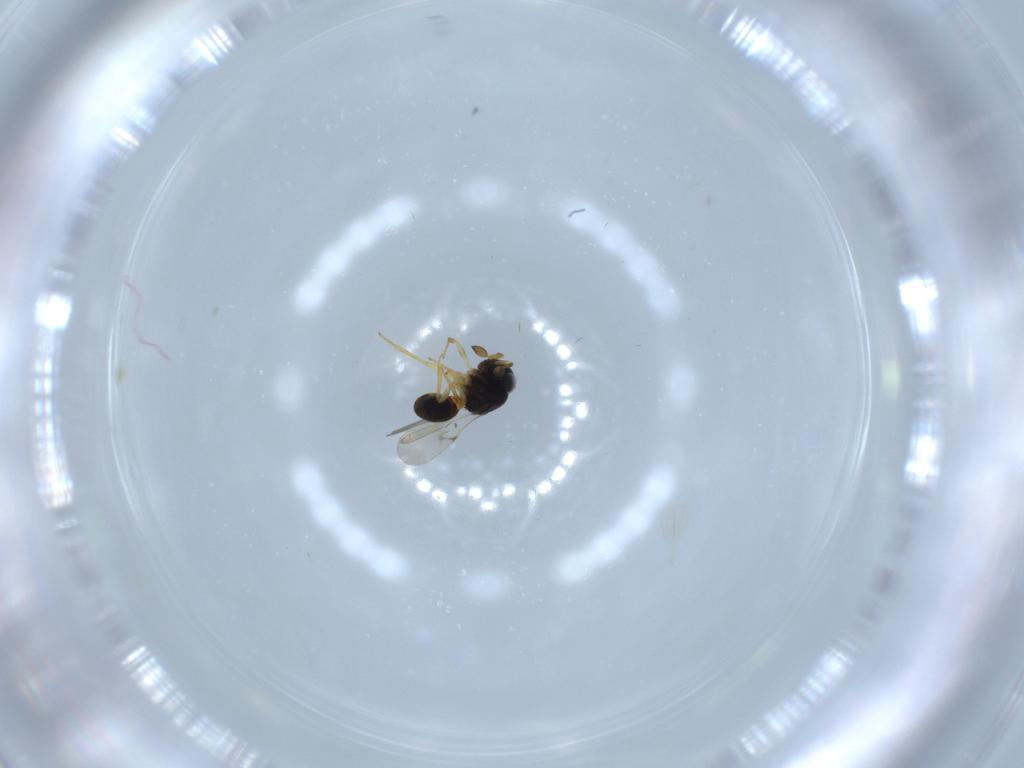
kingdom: Animalia
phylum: Arthropoda
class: Insecta
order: Hymenoptera
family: Scelionidae
